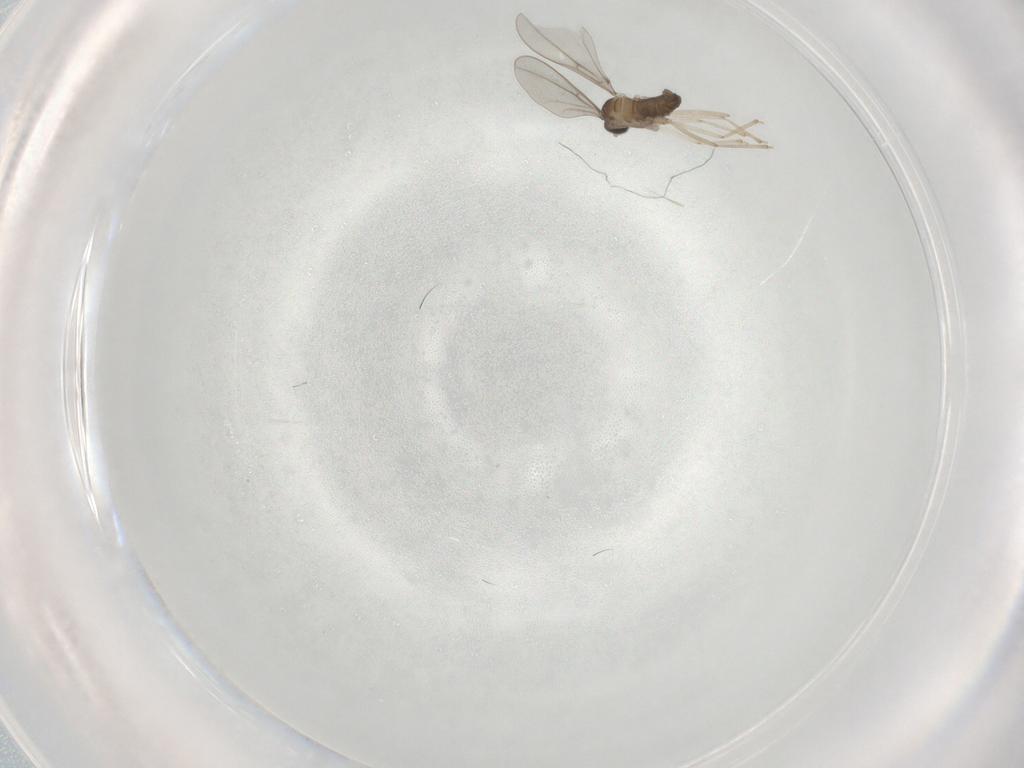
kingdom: Animalia
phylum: Arthropoda
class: Insecta
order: Diptera
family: Cecidomyiidae
